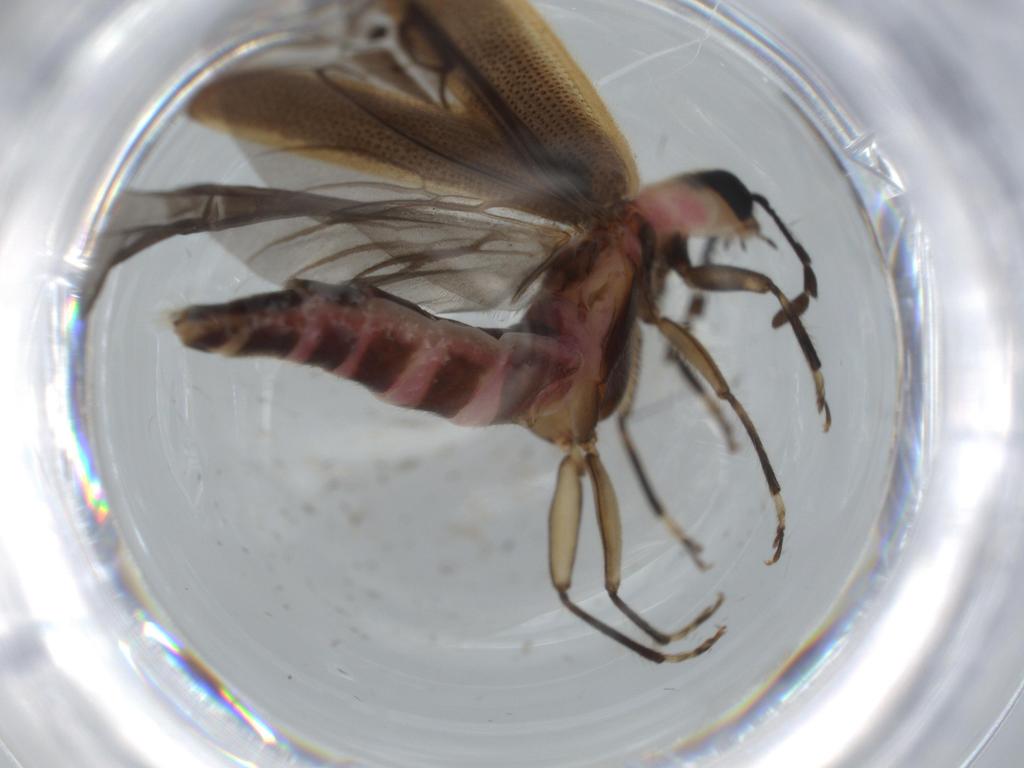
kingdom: Animalia
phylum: Arthropoda
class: Insecta
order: Coleoptera
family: Cleridae
